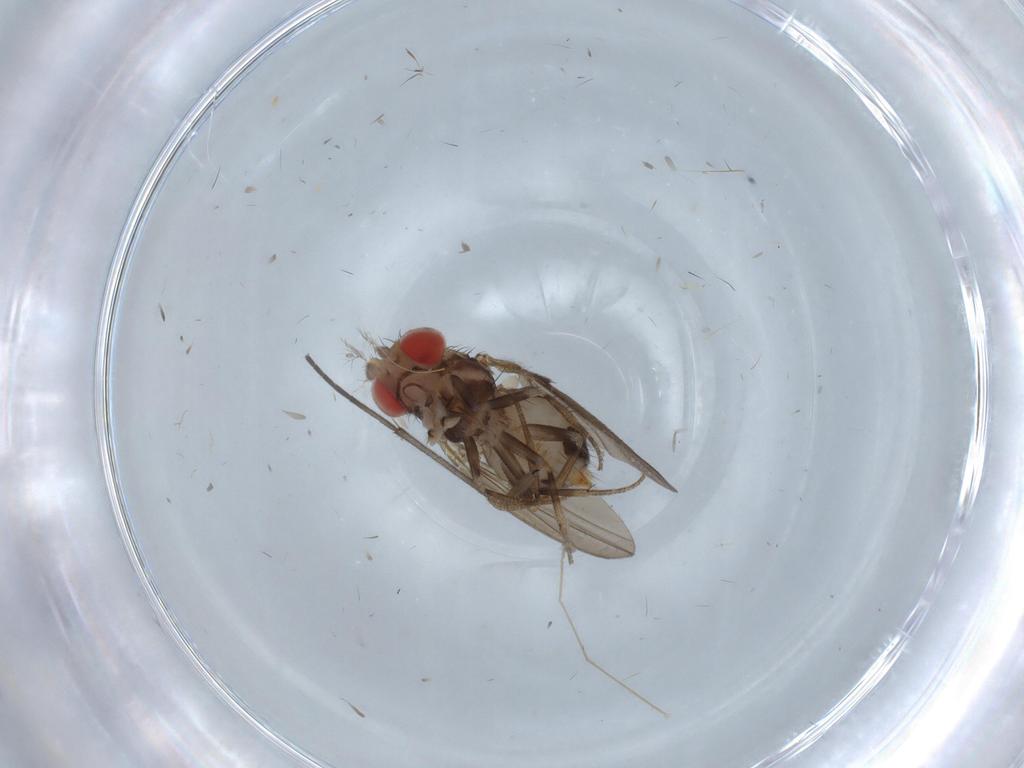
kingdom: Animalia
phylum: Arthropoda
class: Insecta
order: Diptera
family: Drosophilidae
